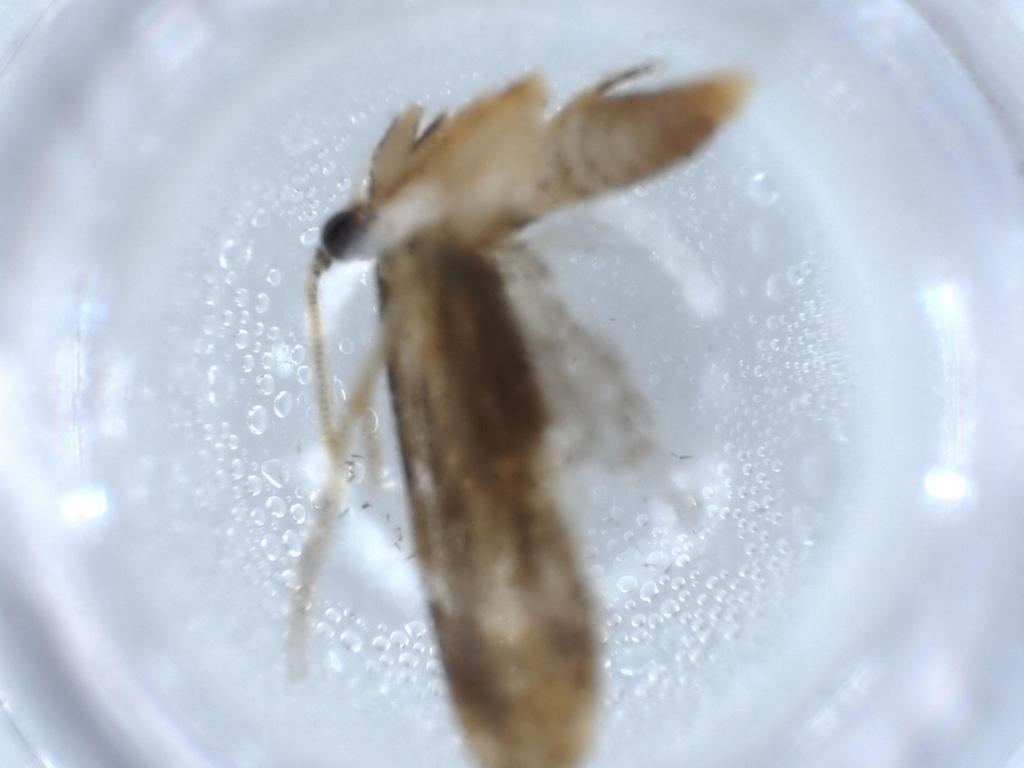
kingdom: Animalia
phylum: Arthropoda
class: Insecta
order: Lepidoptera
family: Tineidae
